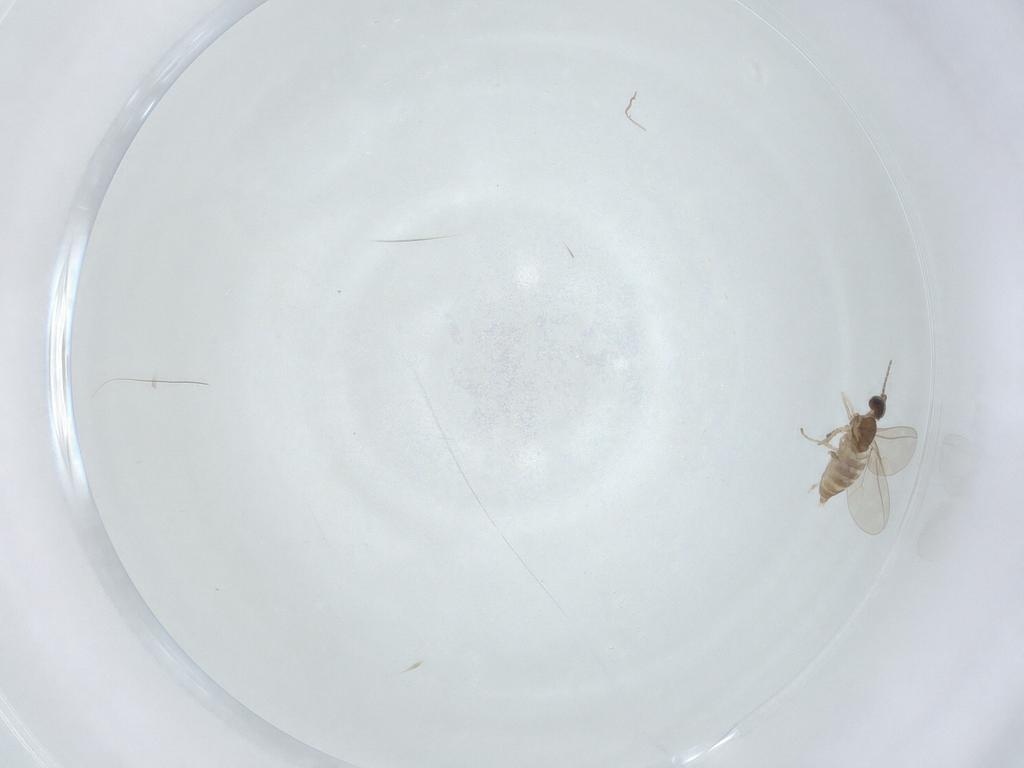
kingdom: Animalia
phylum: Arthropoda
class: Insecta
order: Diptera
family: Cecidomyiidae
